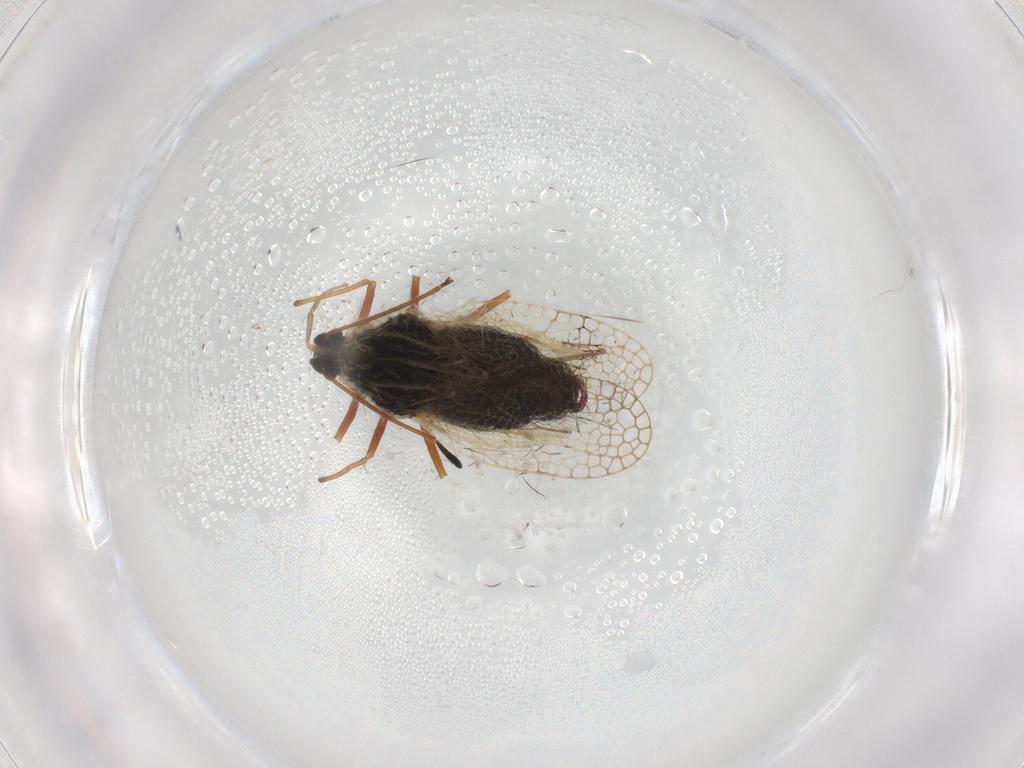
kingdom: Animalia
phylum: Arthropoda
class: Insecta
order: Hemiptera
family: Tingidae
